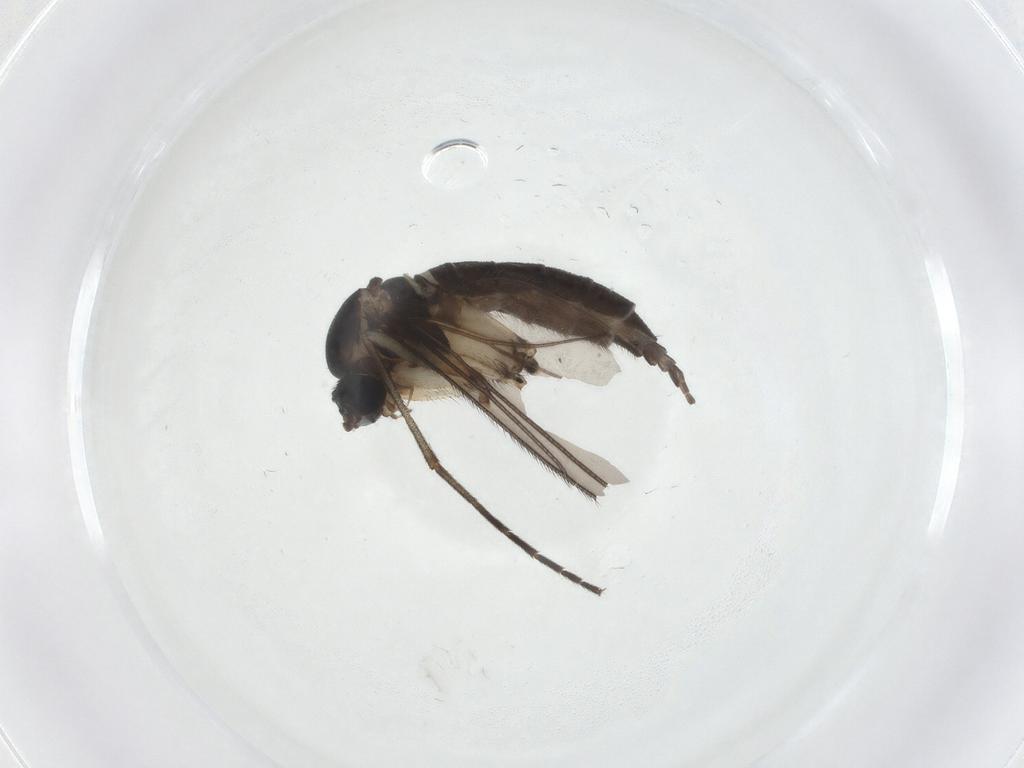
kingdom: Animalia
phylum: Arthropoda
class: Insecta
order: Diptera
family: Sciaridae
